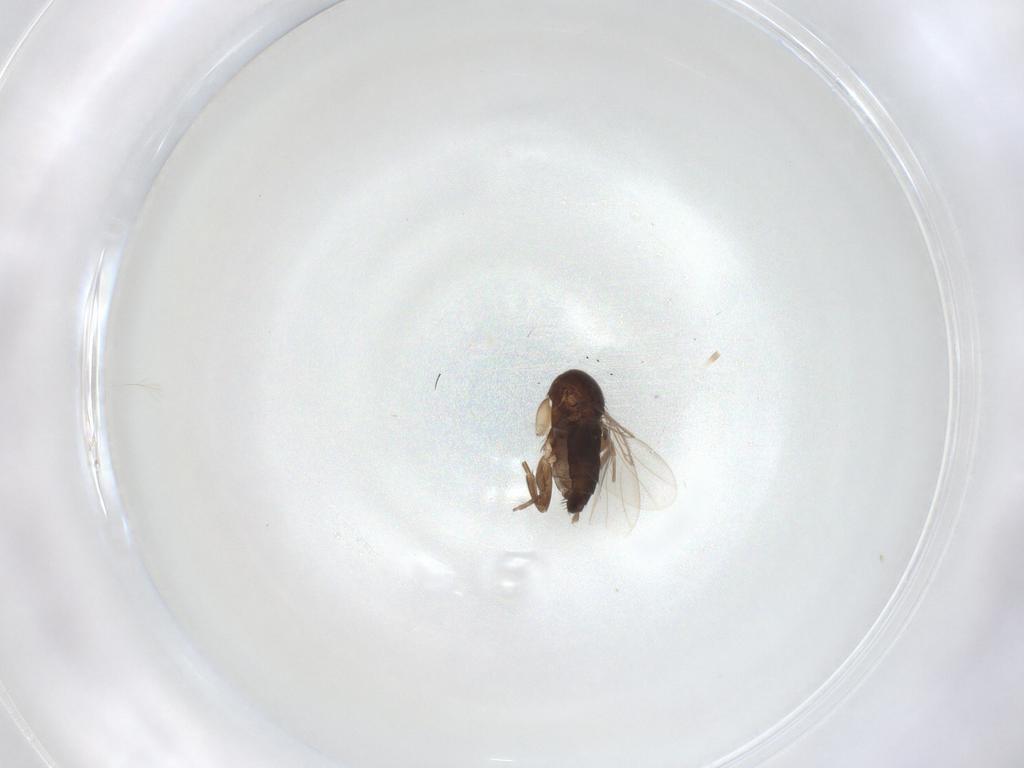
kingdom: Animalia
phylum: Arthropoda
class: Insecta
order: Diptera
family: Phoridae
